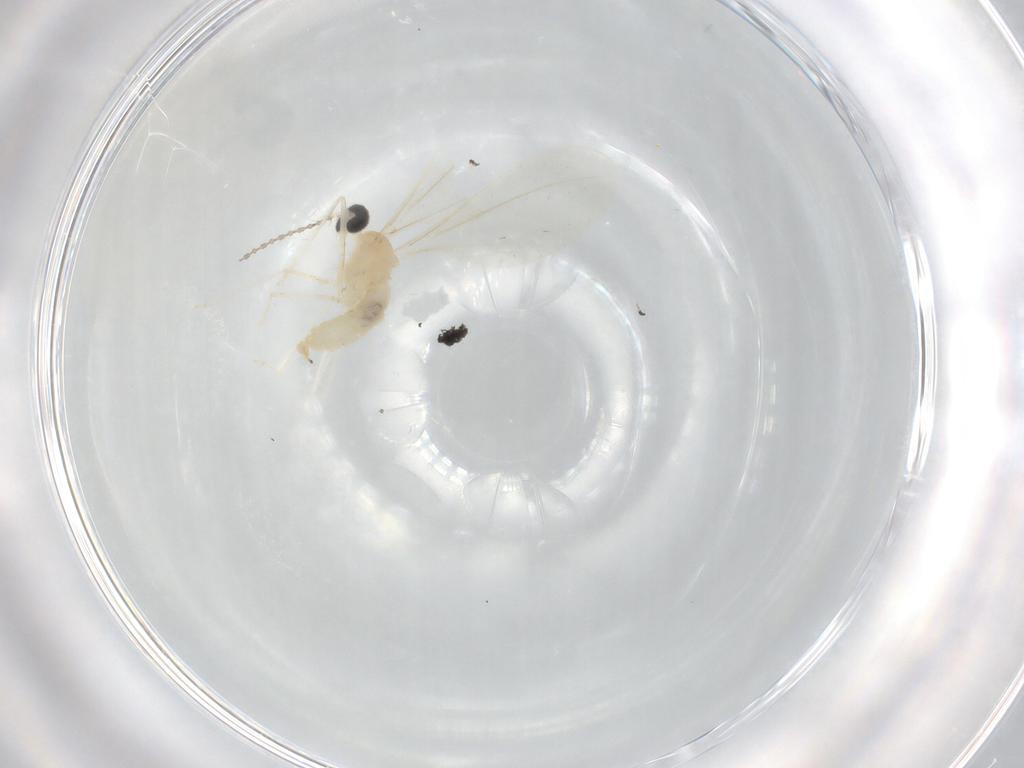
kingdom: Animalia
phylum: Arthropoda
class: Insecta
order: Diptera
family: Cecidomyiidae
